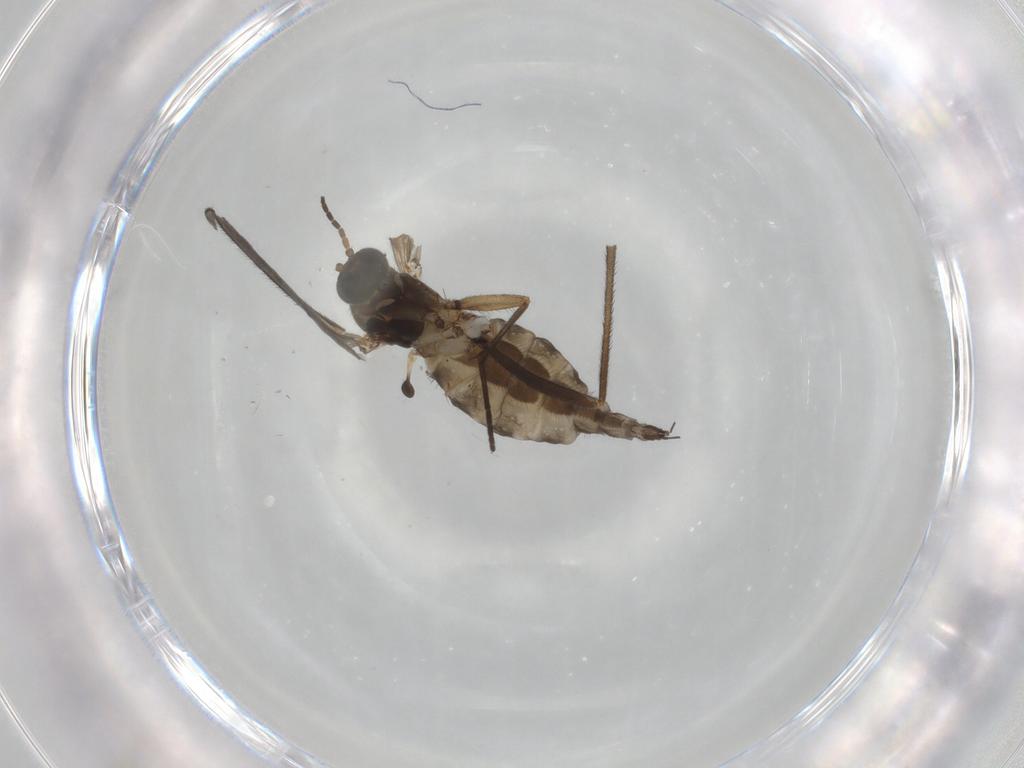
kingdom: Animalia
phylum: Arthropoda
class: Insecta
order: Diptera
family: Sciaridae
